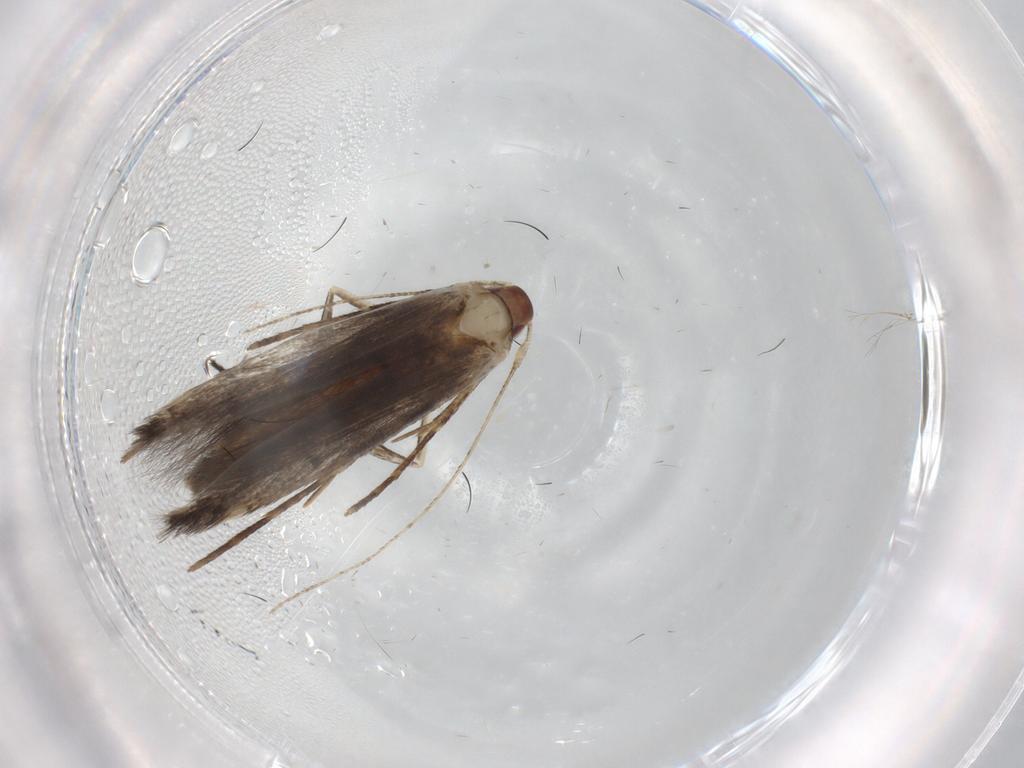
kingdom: Animalia
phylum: Arthropoda
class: Insecta
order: Lepidoptera
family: Cosmopterigidae
